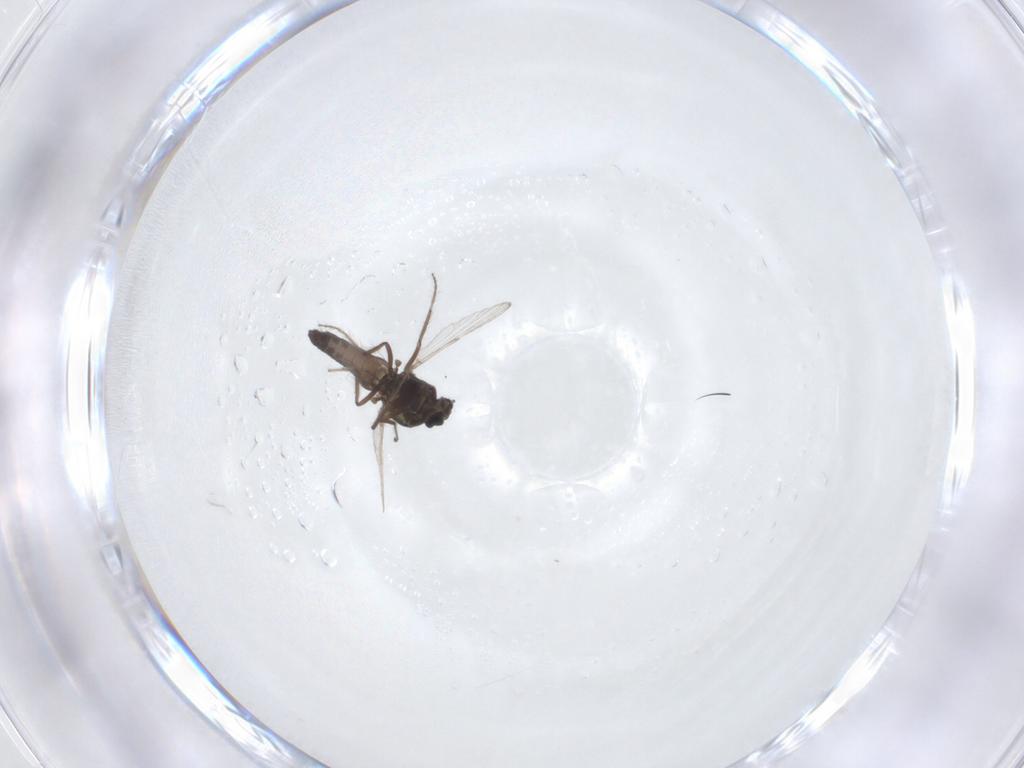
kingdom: Animalia
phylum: Arthropoda
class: Insecta
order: Diptera
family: Ceratopogonidae
